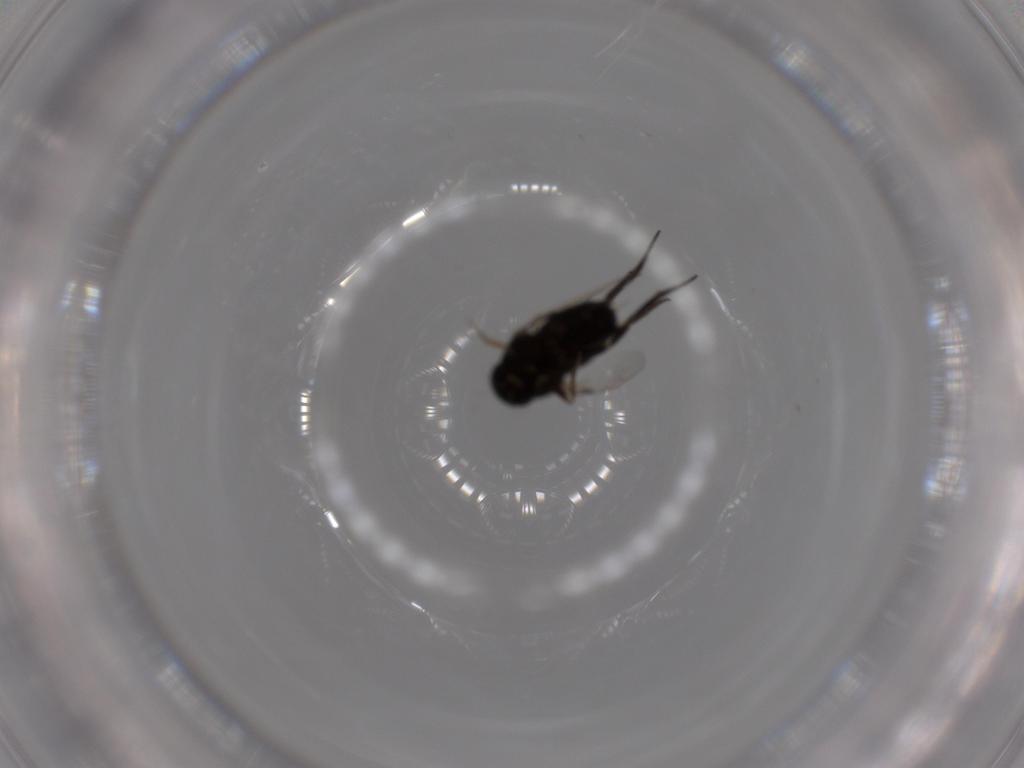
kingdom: Animalia
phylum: Arthropoda
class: Insecta
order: Diptera
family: Phoridae
